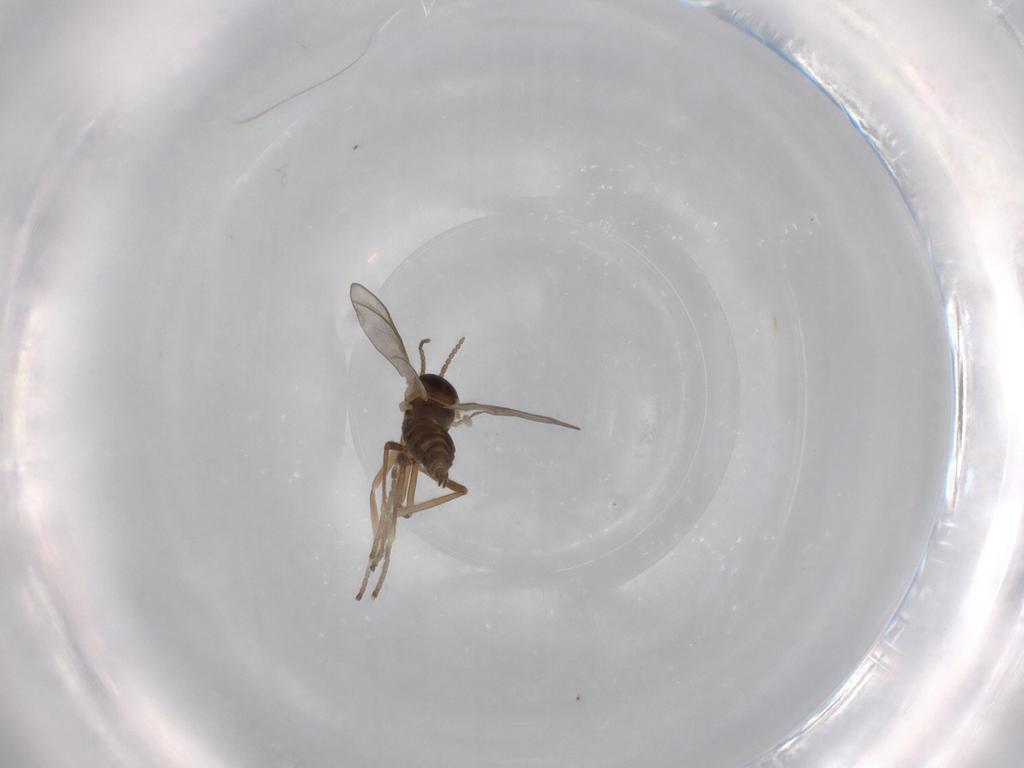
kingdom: Animalia
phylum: Arthropoda
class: Insecta
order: Diptera
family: Cecidomyiidae
